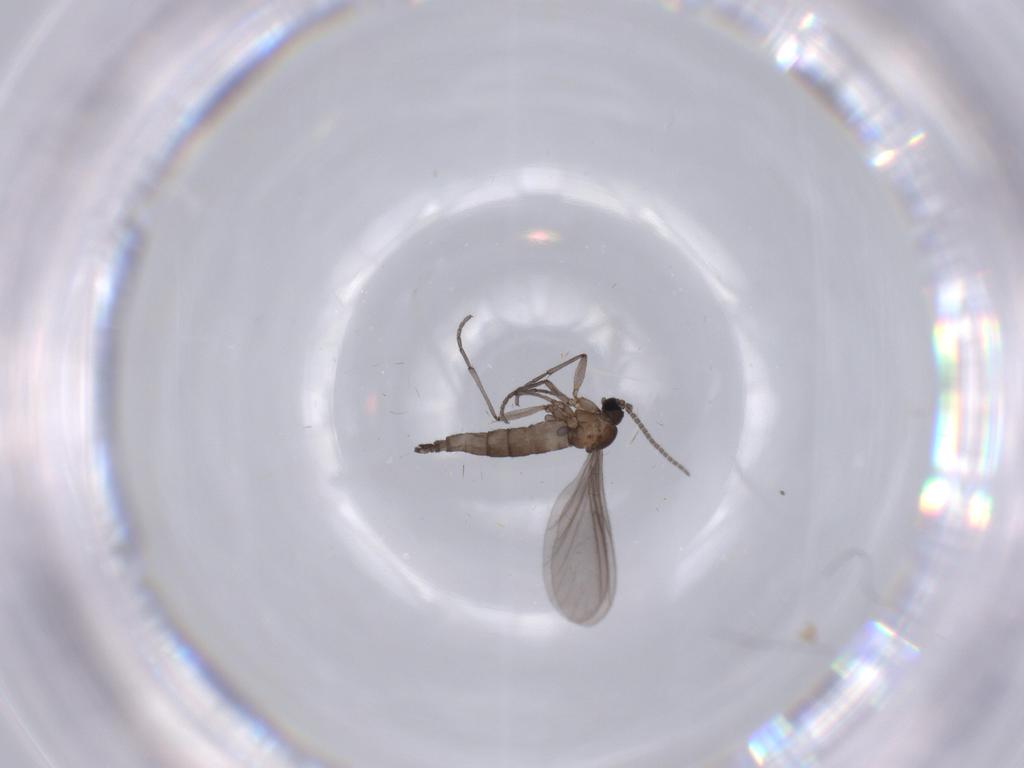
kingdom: Animalia
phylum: Arthropoda
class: Insecta
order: Diptera
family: Sciaridae
